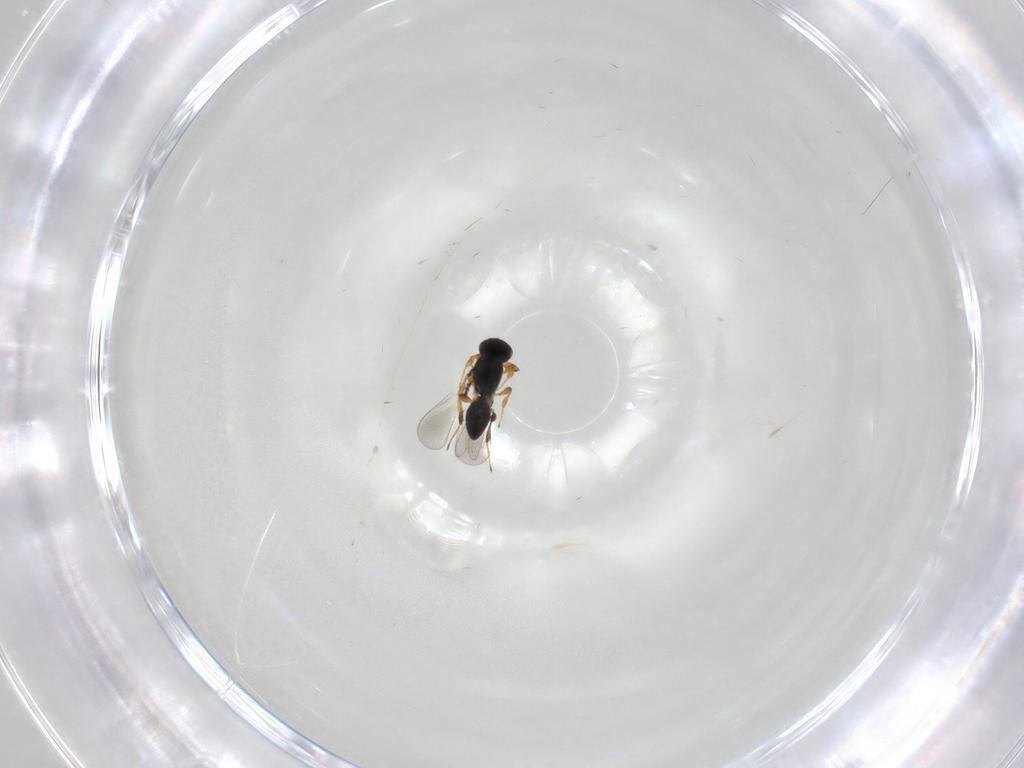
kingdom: Animalia
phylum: Arthropoda
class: Insecta
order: Hymenoptera
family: Platygastridae
